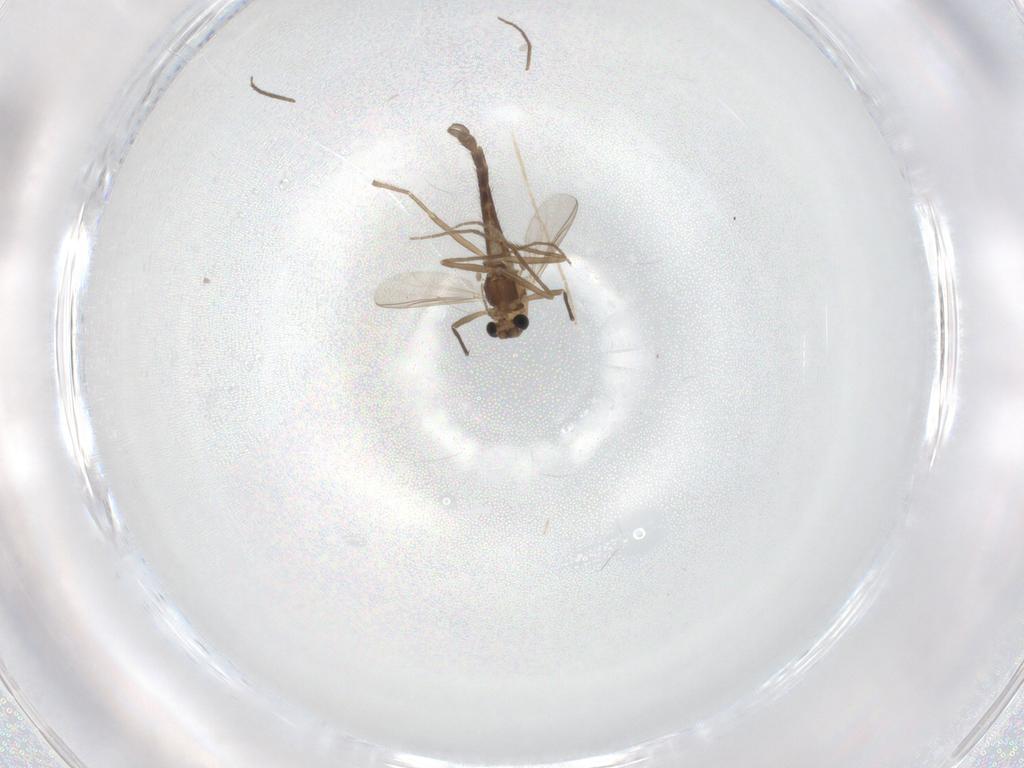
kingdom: Animalia
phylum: Arthropoda
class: Insecta
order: Diptera
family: Chironomidae
